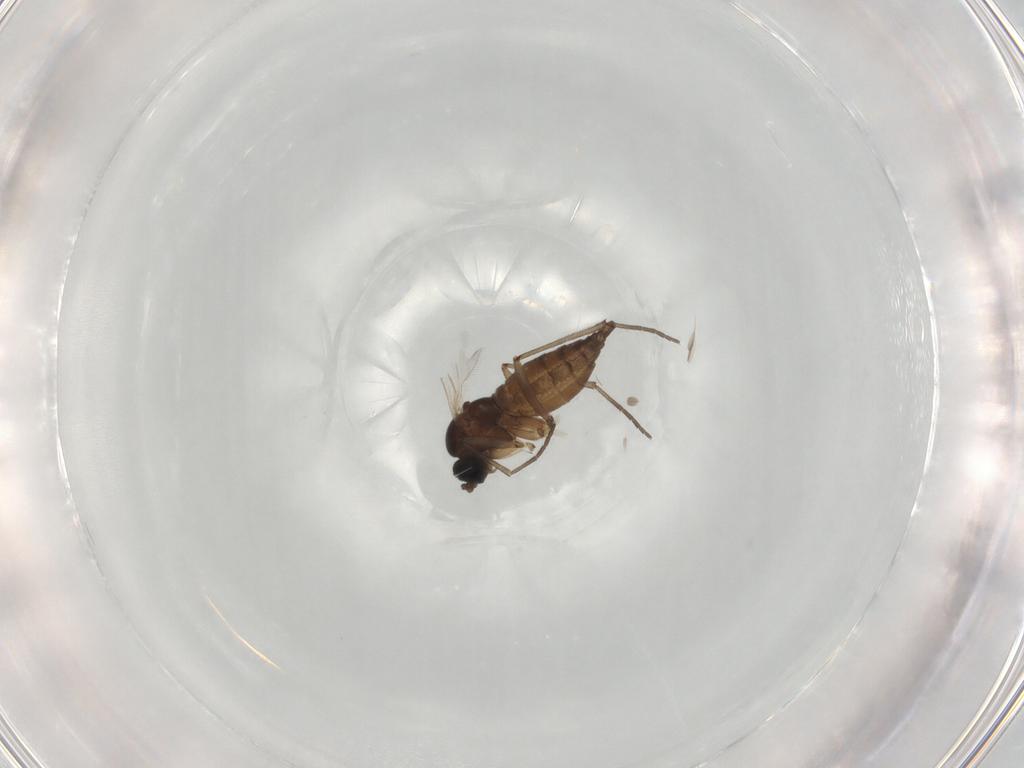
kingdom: Animalia
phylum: Arthropoda
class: Insecta
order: Diptera
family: Sciaridae
